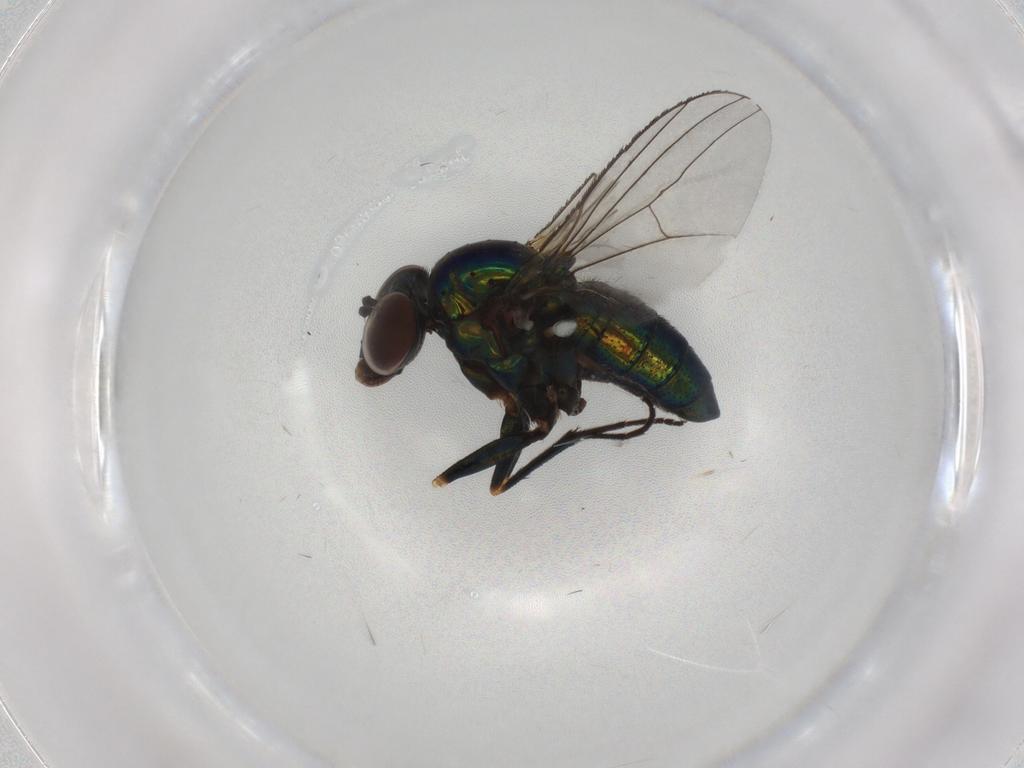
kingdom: Animalia
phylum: Arthropoda
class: Insecta
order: Diptera
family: Dolichopodidae
